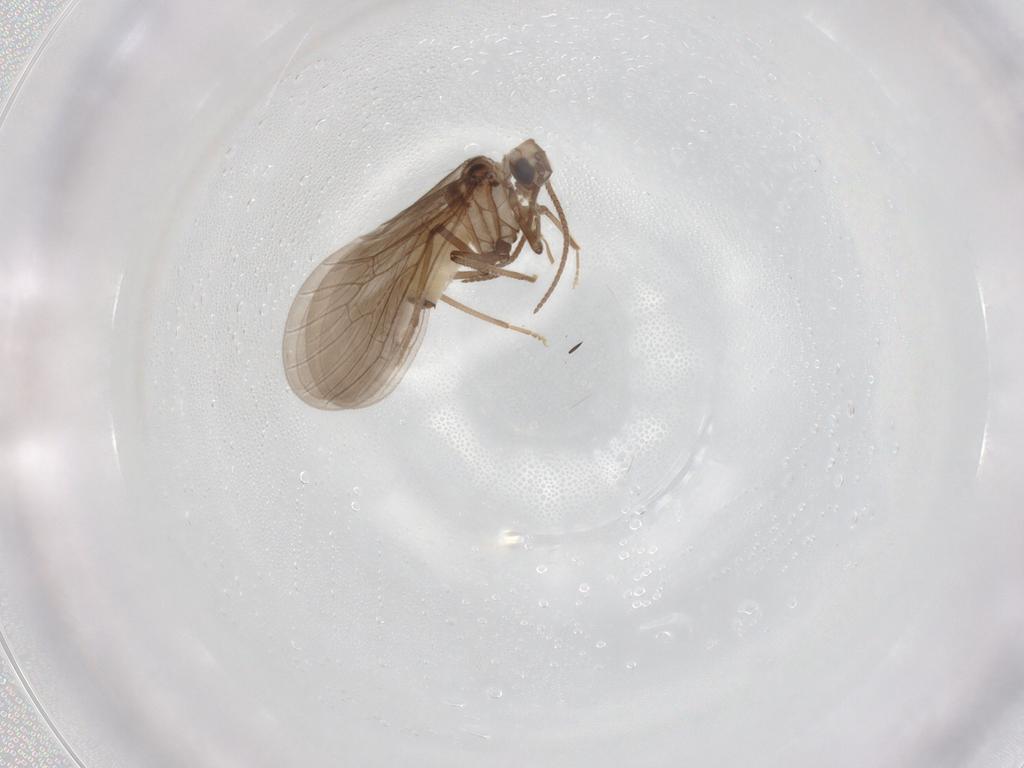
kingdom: Animalia
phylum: Arthropoda
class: Insecta
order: Neuroptera
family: Coniopterygidae
